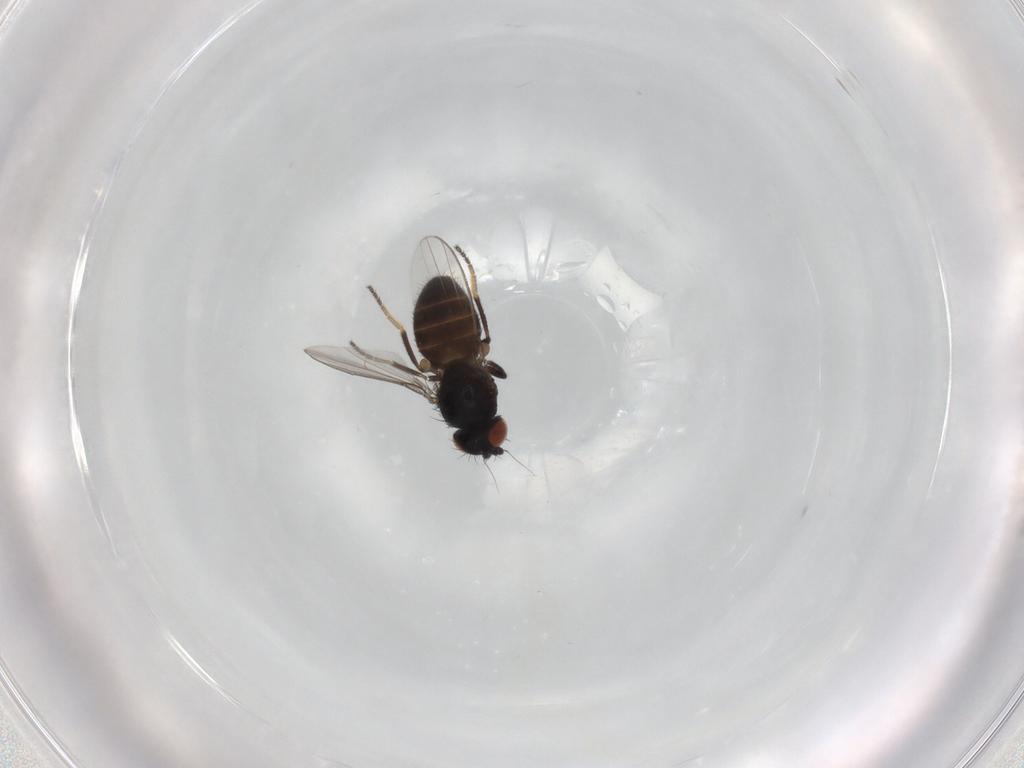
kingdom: Animalia
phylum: Arthropoda
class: Insecta
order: Diptera
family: Milichiidae
